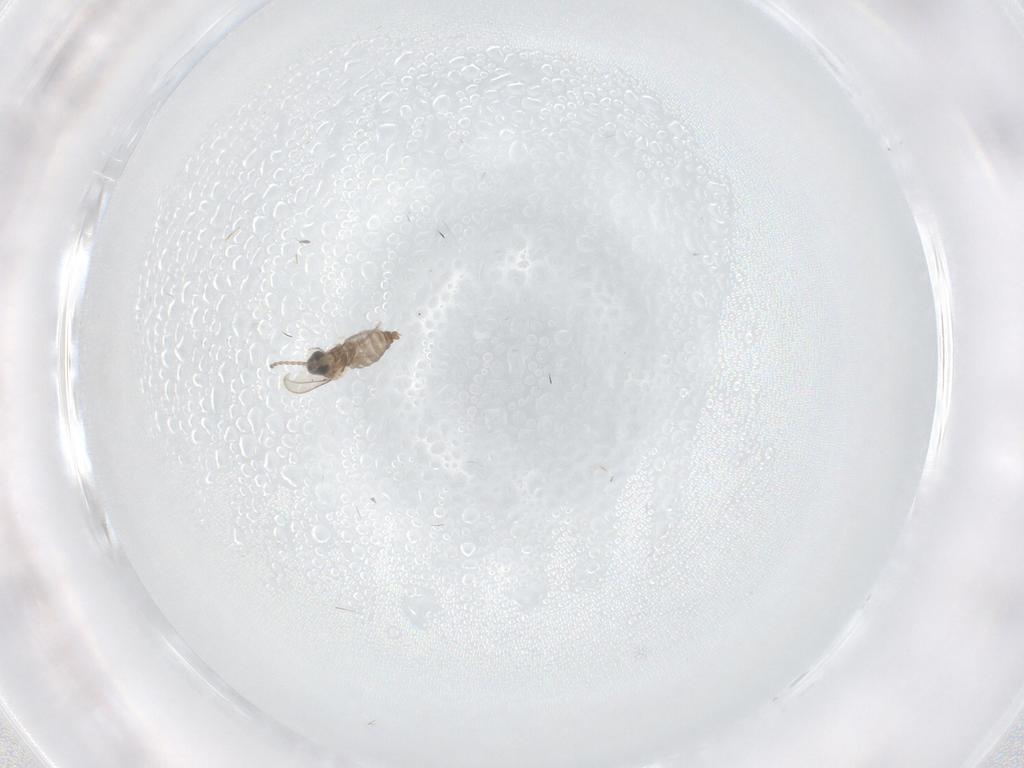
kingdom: Animalia
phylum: Arthropoda
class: Insecta
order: Diptera
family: Cecidomyiidae
